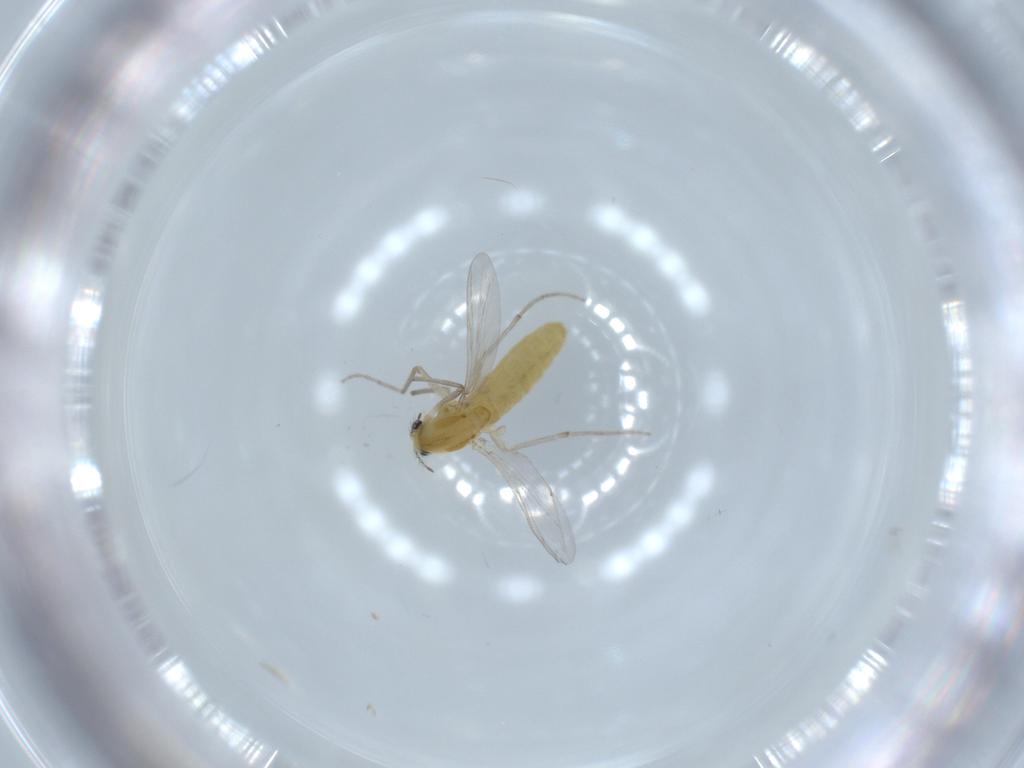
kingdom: Animalia
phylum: Arthropoda
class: Insecta
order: Diptera
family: Chironomidae
